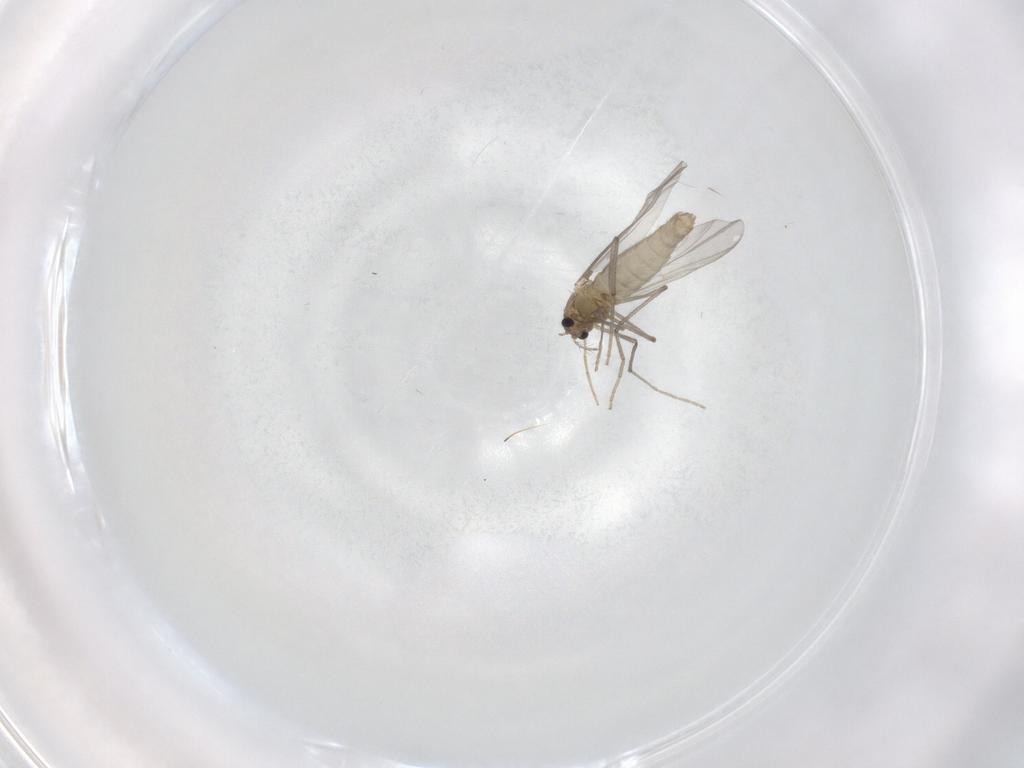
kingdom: Animalia
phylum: Arthropoda
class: Insecta
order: Diptera
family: Chironomidae
